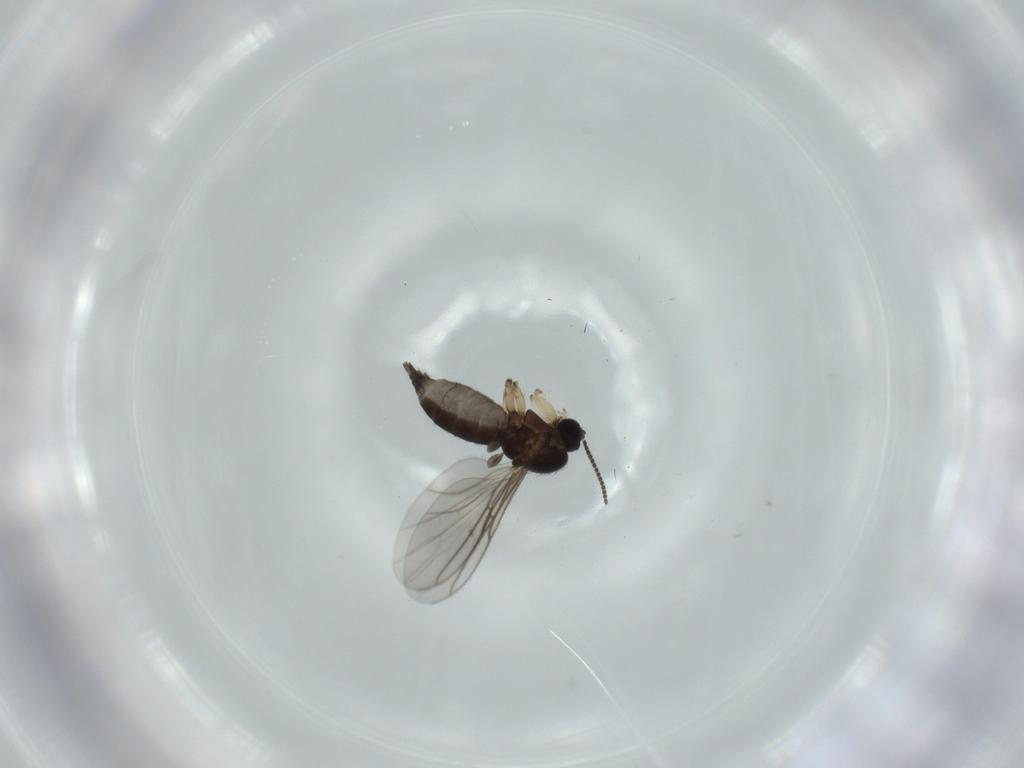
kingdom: Animalia
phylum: Arthropoda
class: Insecta
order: Diptera
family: Sciaridae
